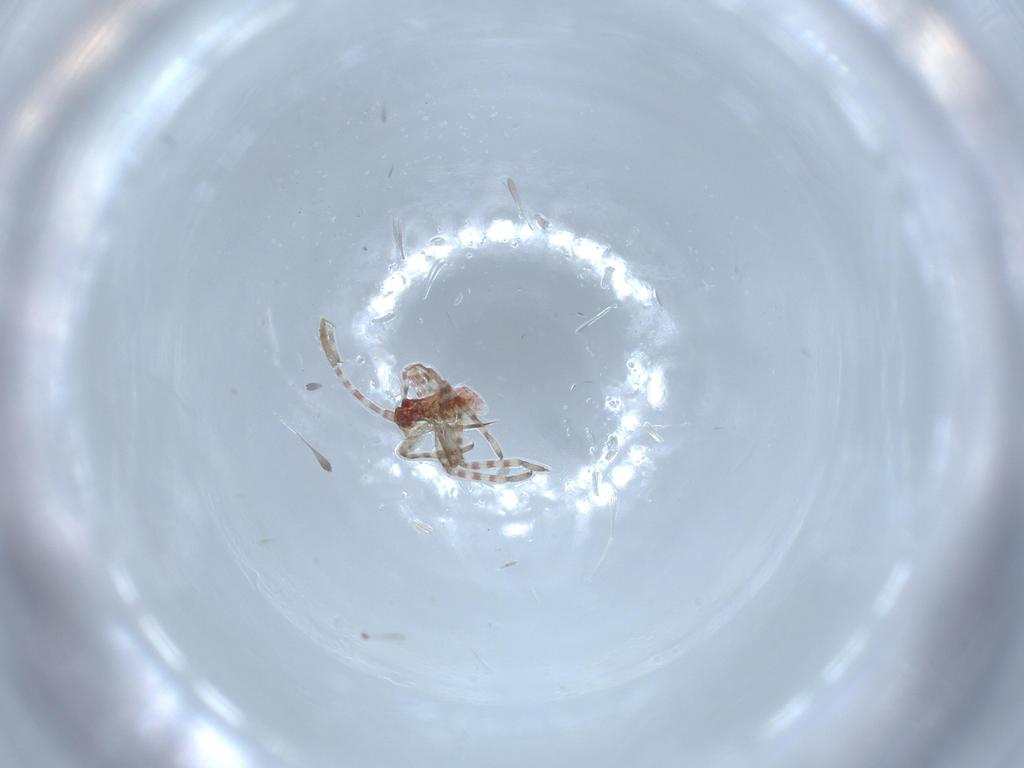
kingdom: Animalia
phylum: Arthropoda
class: Insecta
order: Hemiptera
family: Miridae
